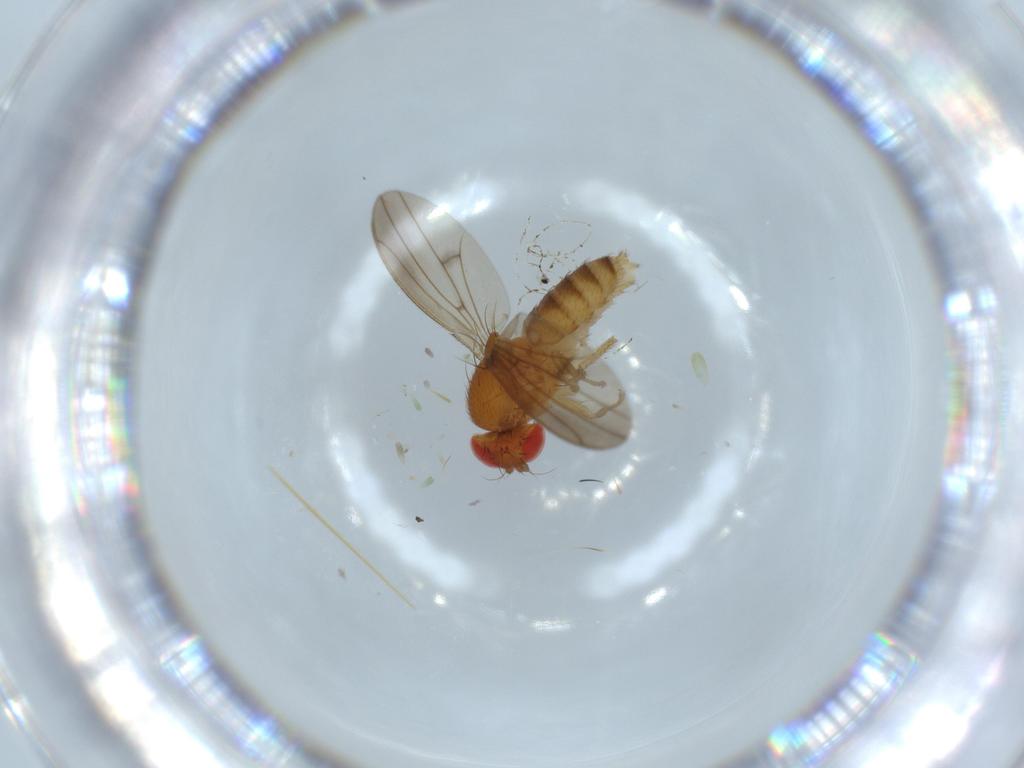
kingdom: Animalia
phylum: Arthropoda
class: Insecta
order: Diptera
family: Drosophilidae
